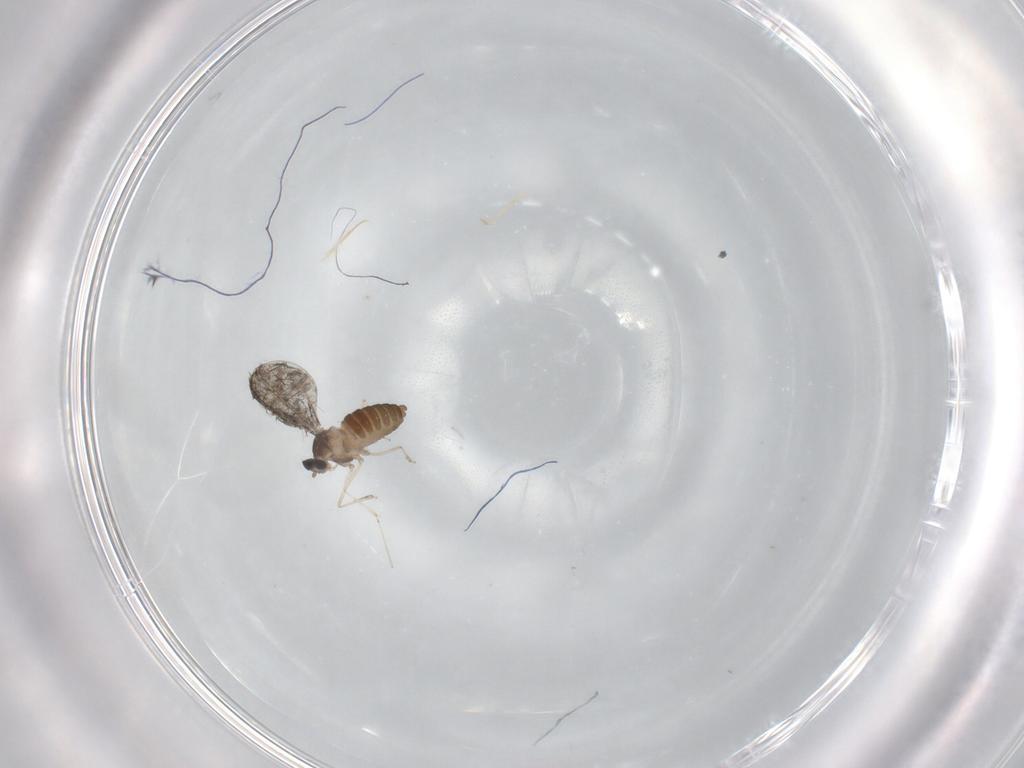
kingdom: Animalia
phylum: Arthropoda
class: Insecta
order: Diptera
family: Cecidomyiidae
